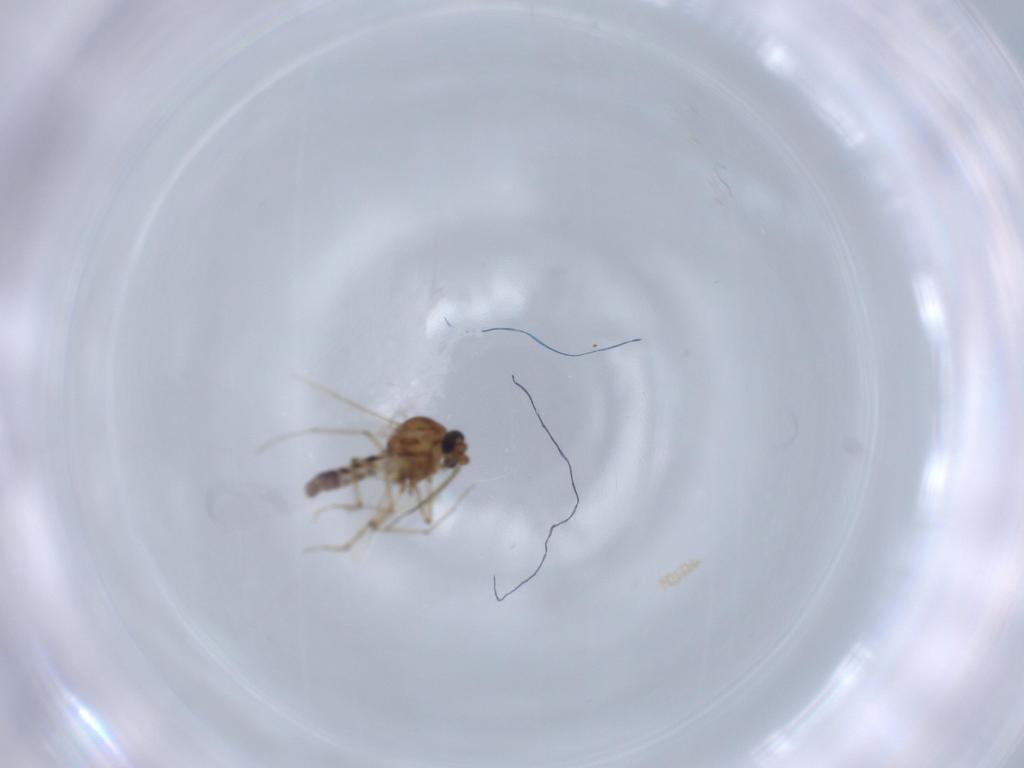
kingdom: Animalia
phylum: Arthropoda
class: Insecta
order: Diptera
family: Ceratopogonidae
